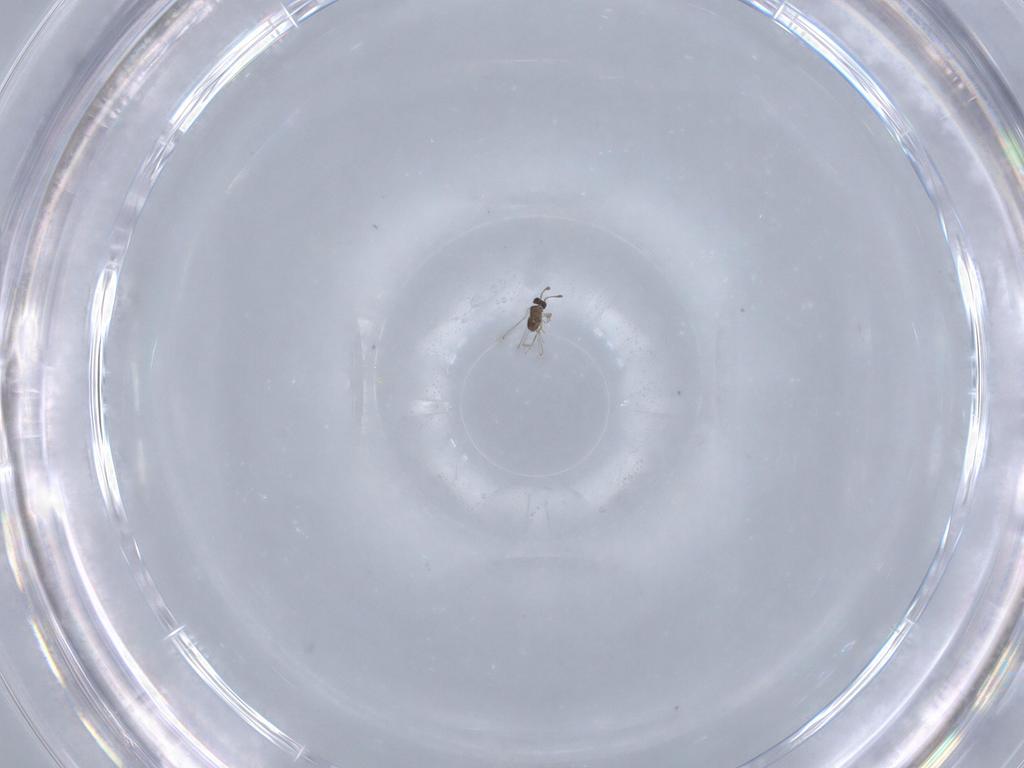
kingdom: Animalia
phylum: Arthropoda
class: Insecta
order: Hymenoptera
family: Mymaridae
